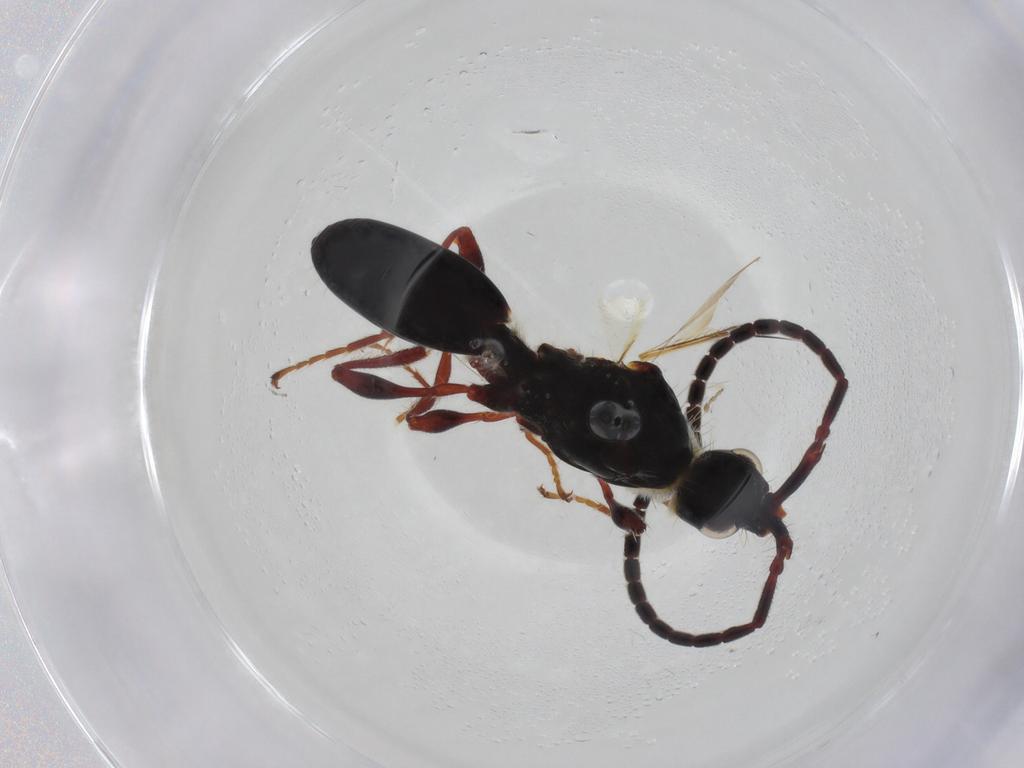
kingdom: Animalia
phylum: Arthropoda
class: Insecta
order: Hymenoptera
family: Diapriidae
